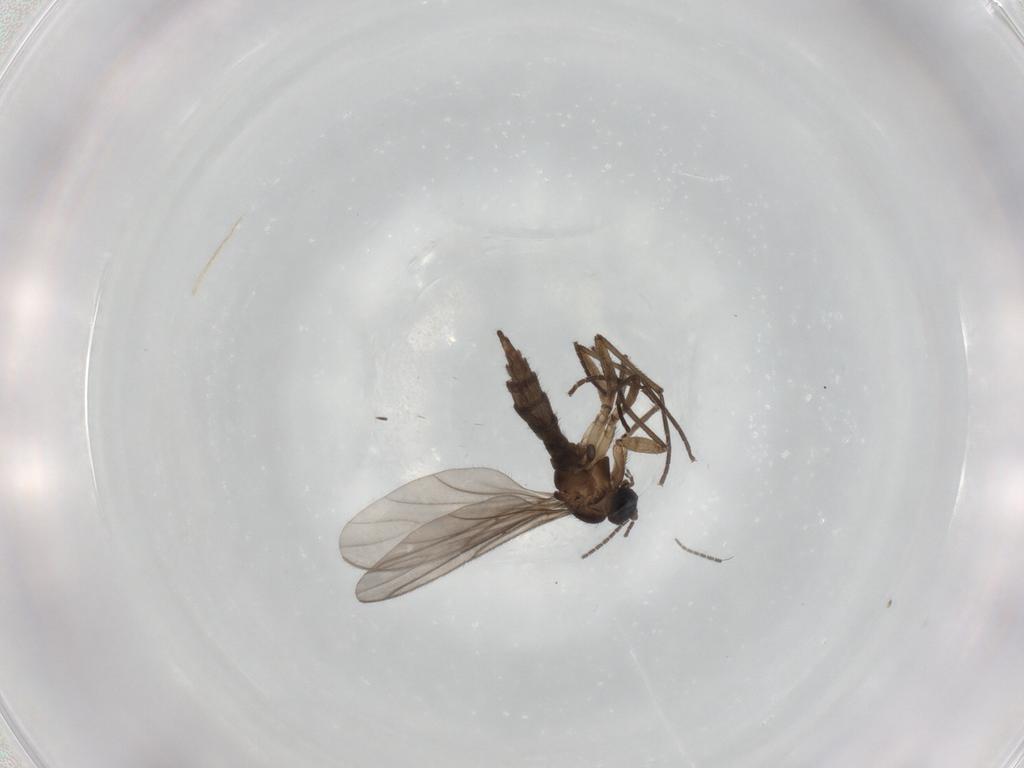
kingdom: Animalia
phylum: Arthropoda
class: Insecta
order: Diptera
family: Sciaridae
